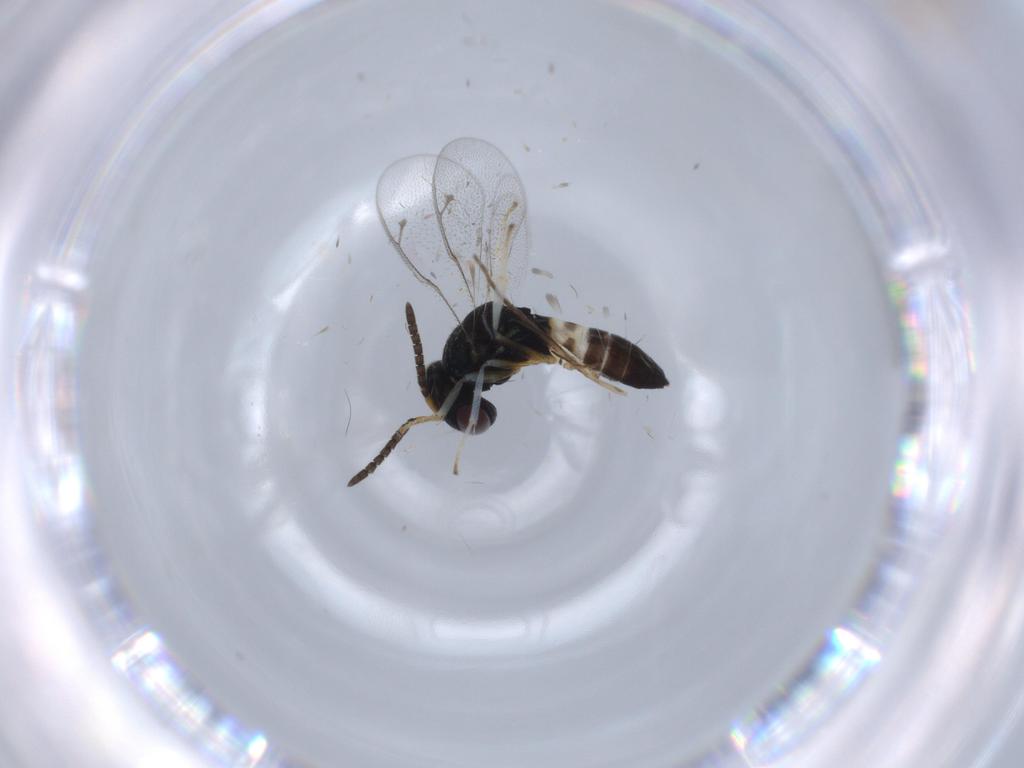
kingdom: Animalia
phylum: Arthropoda
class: Insecta
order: Hymenoptera
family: Pteromalidae
